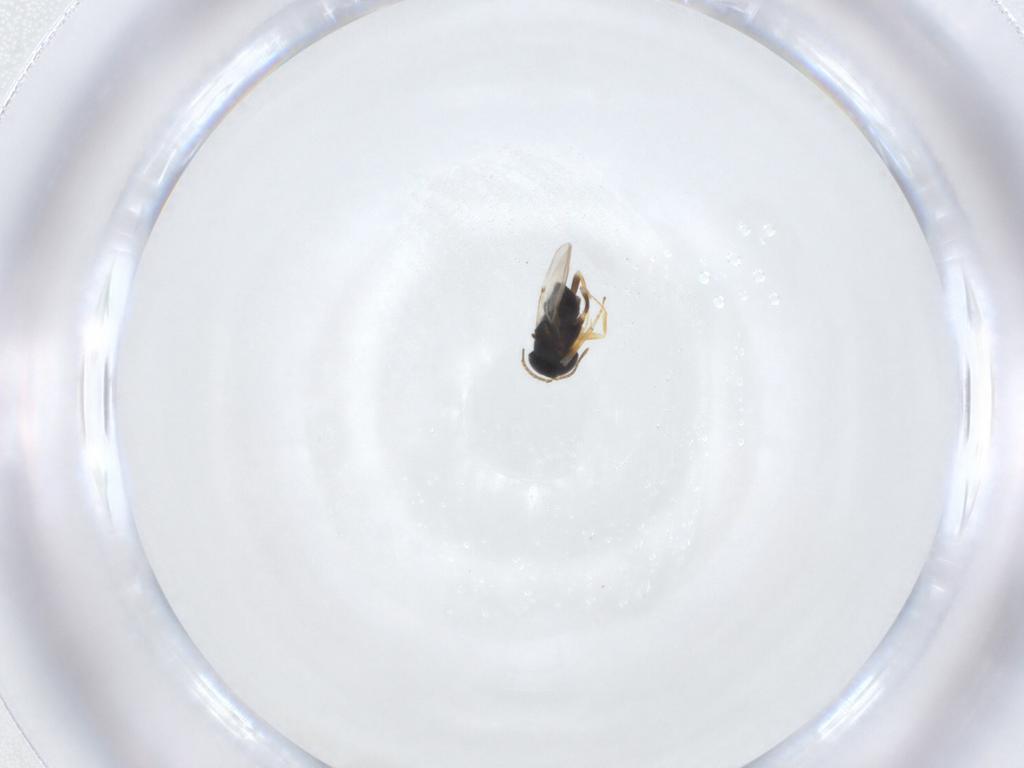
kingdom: Animalia
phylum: Arthropoda
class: Insecta
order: Hymenoptera
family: Encyrtidae
